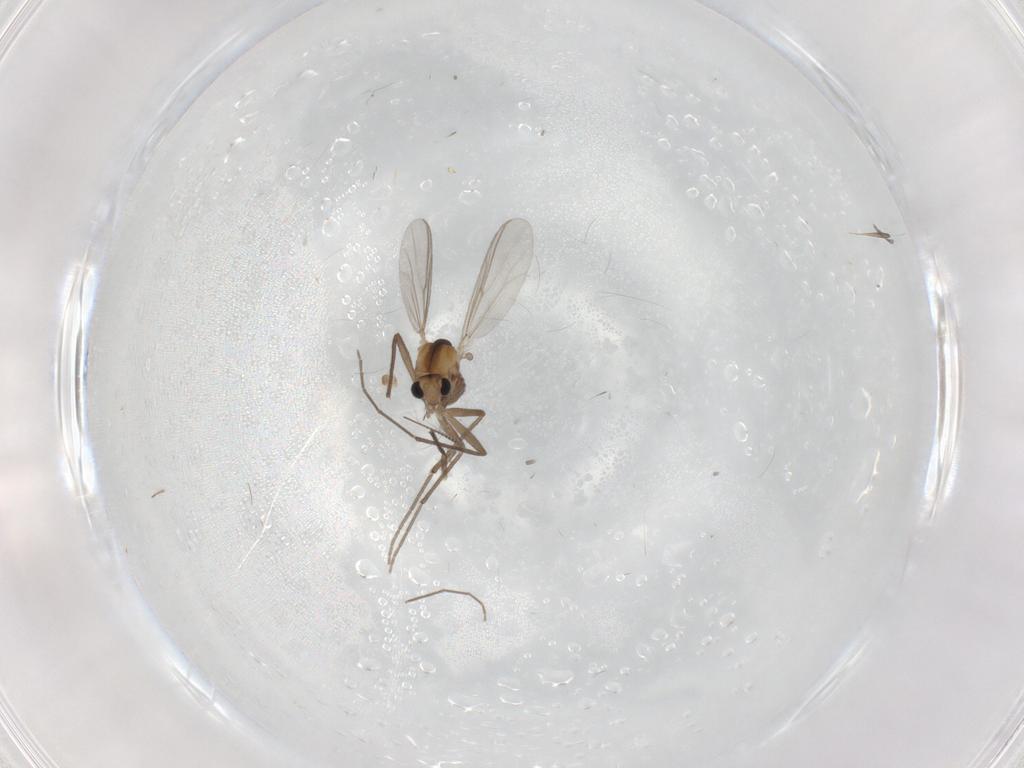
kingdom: Animalia
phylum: Arthropoda
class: Insecta
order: Diptera
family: Chironomidae
